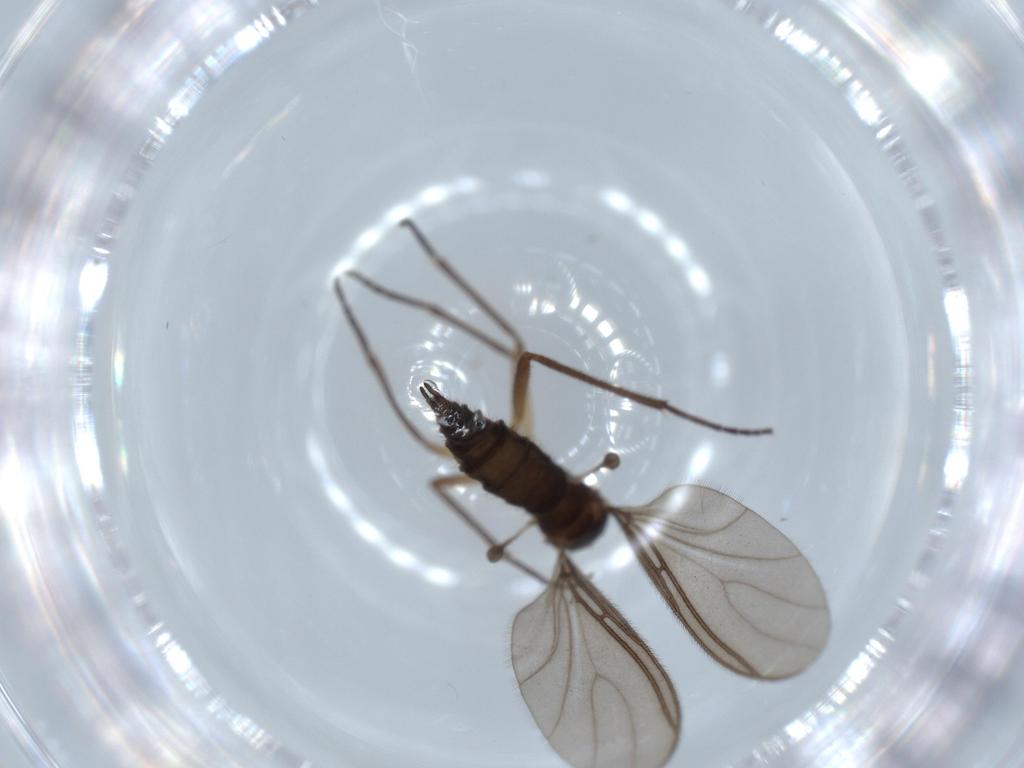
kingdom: Animalia
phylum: Arthropoda
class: Insecta
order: Diptera
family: Sciaridae
